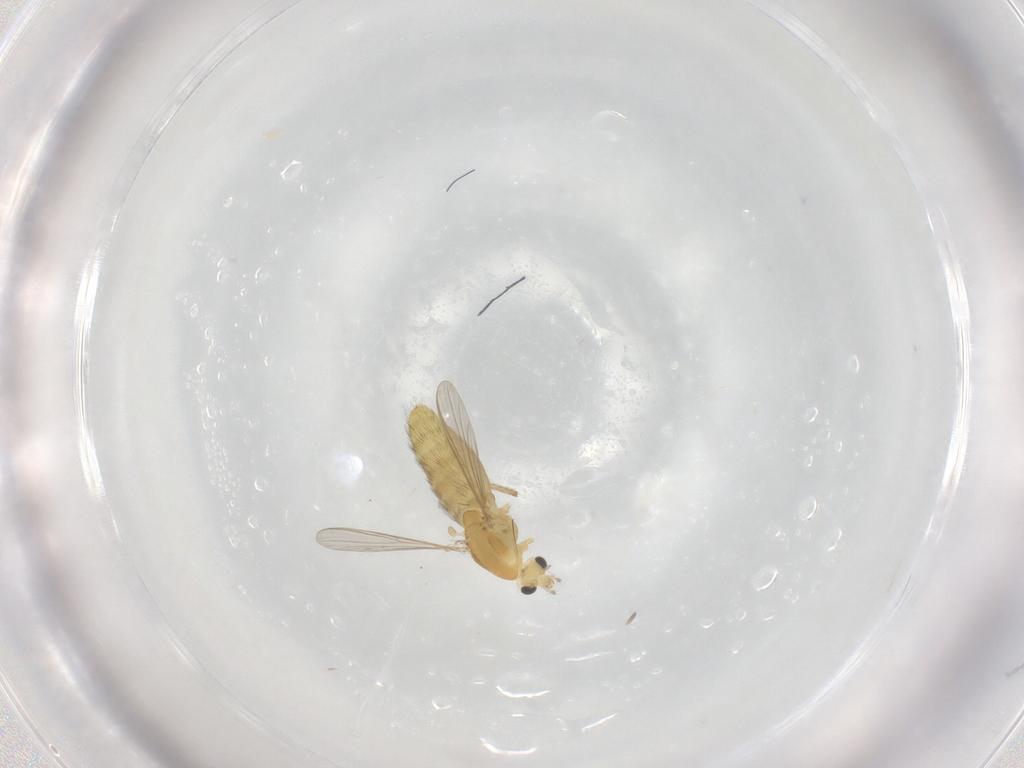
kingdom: Animalia
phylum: Arthropoda
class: Insecta
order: Diptera
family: Chironomidae
